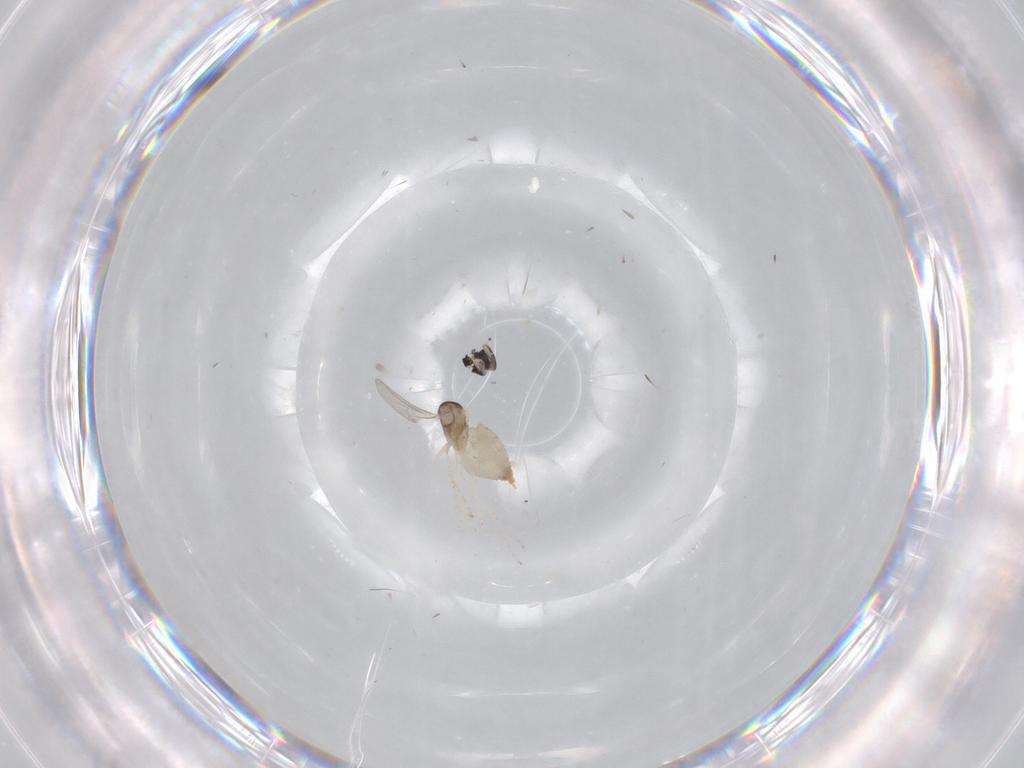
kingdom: Animalia
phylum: Arthropoda
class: Insecta
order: Diptera
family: Cecidomyiidae
